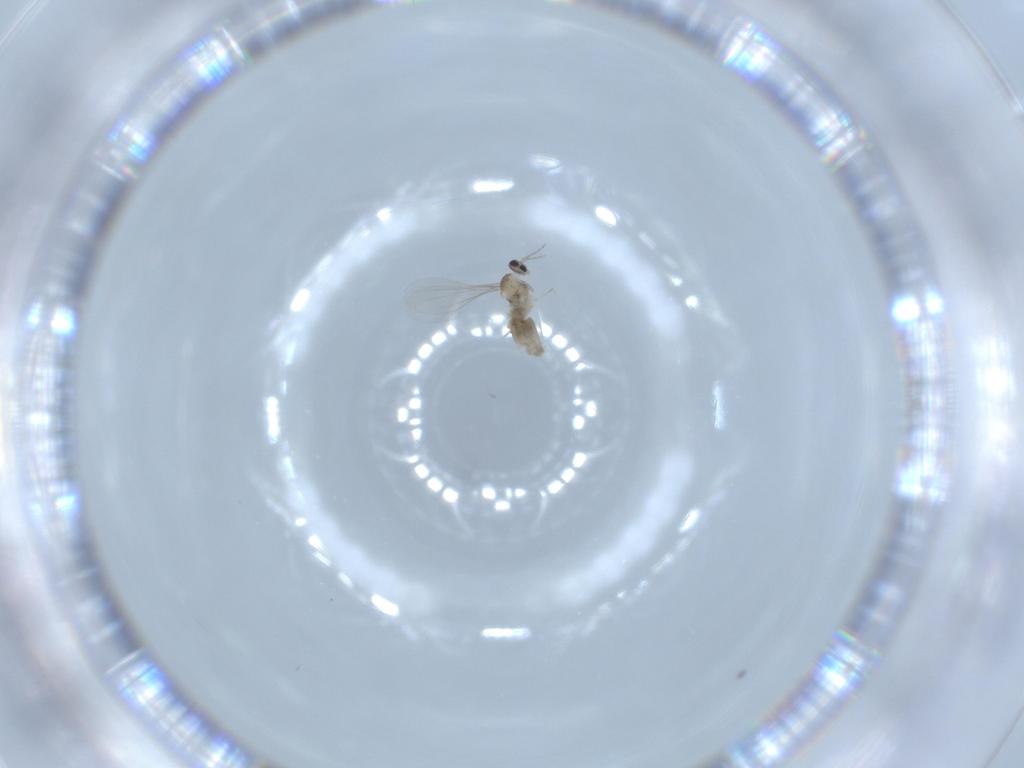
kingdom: Animalia
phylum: Arthropoda
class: Insecta
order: Diptera
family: Cecidomyiidae
